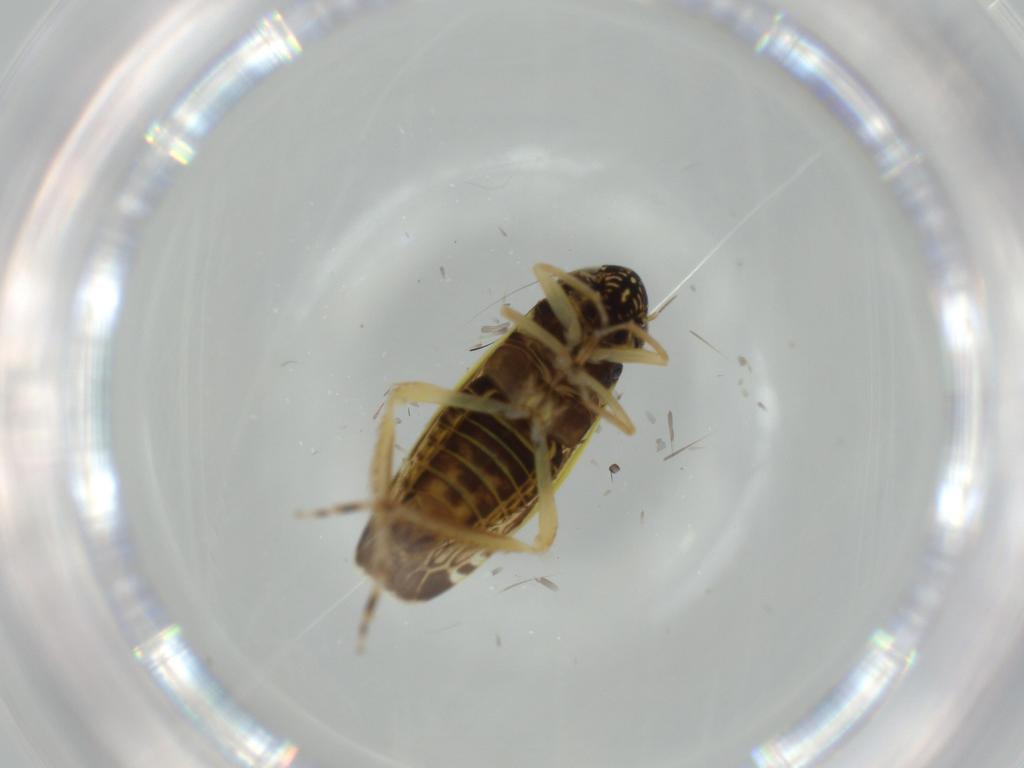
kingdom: Animalia
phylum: Arthropoda
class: Insecta
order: Hemiptera
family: Cicadellidae
